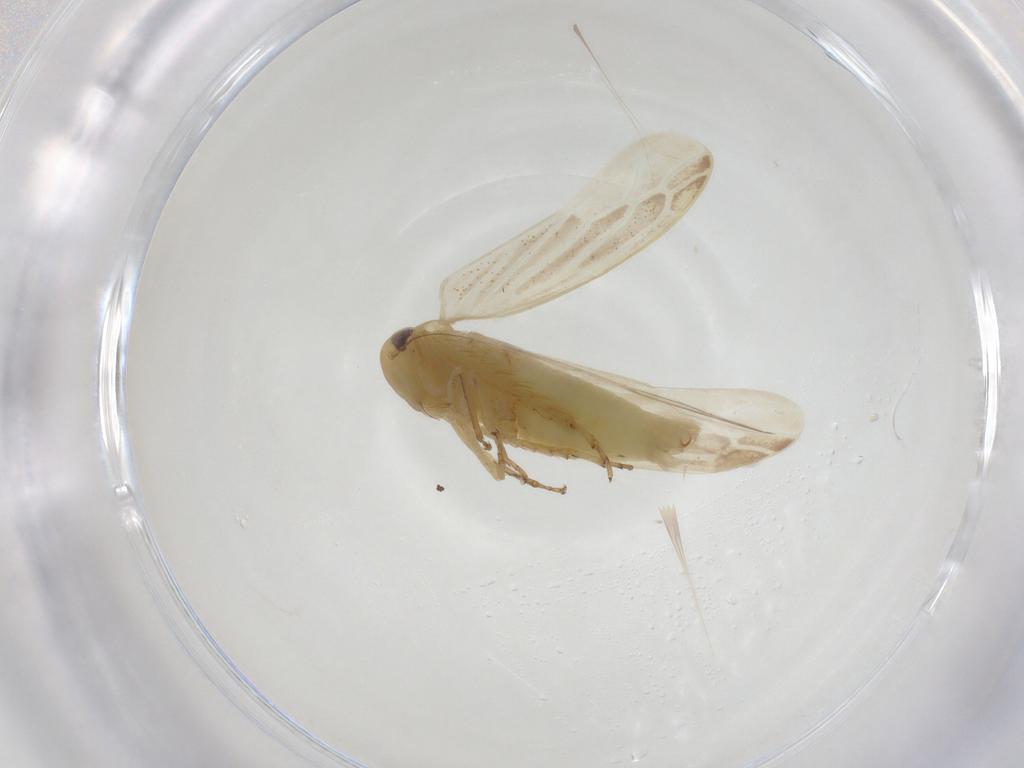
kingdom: Animalia
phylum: Arthropoda
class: Insecta
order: Hemiptera
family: Cicadellidae
